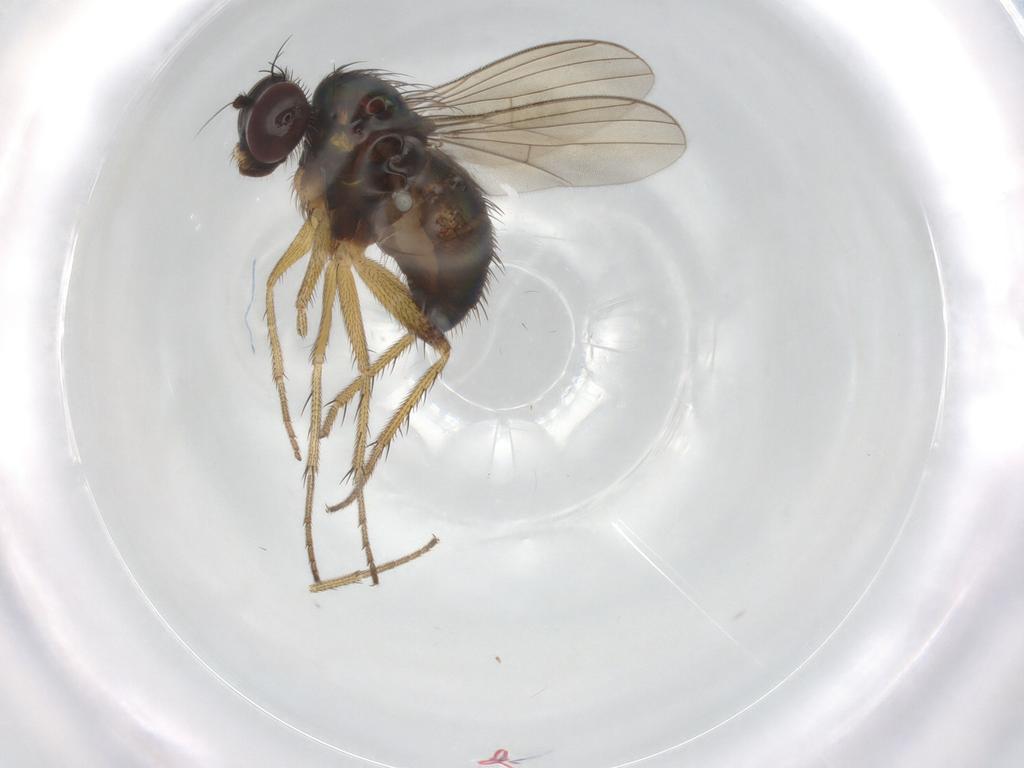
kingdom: Animalia
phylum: Arthropoda
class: Insecta
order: Diptera
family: Dolichopodidae
